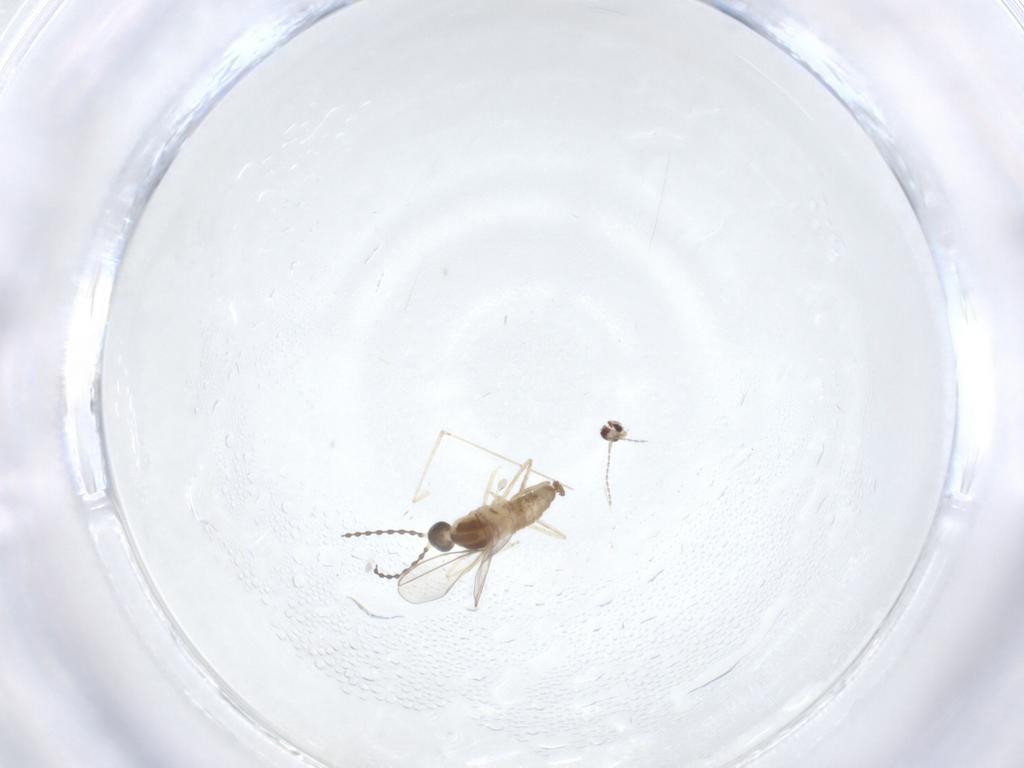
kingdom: Animalia
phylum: Arthropoda
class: Insecta
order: Diptera
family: Cecidomyiidae
